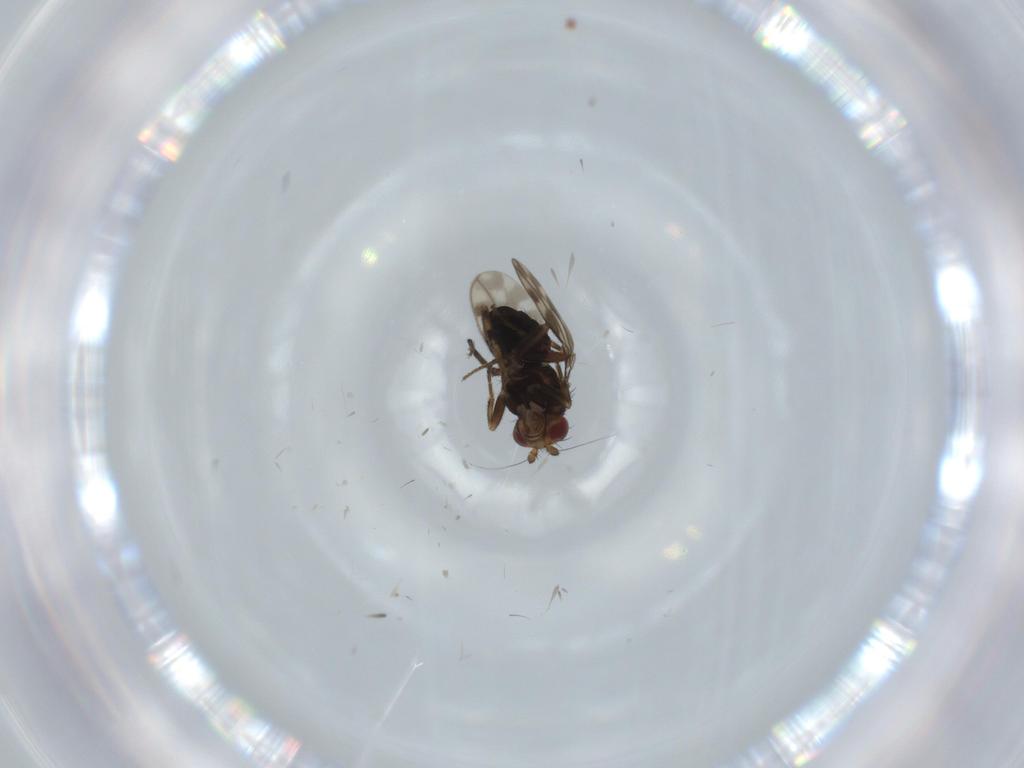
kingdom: Animalia
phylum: Arthropoda
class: Insecta
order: Diptera
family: Sphaeroceridae
